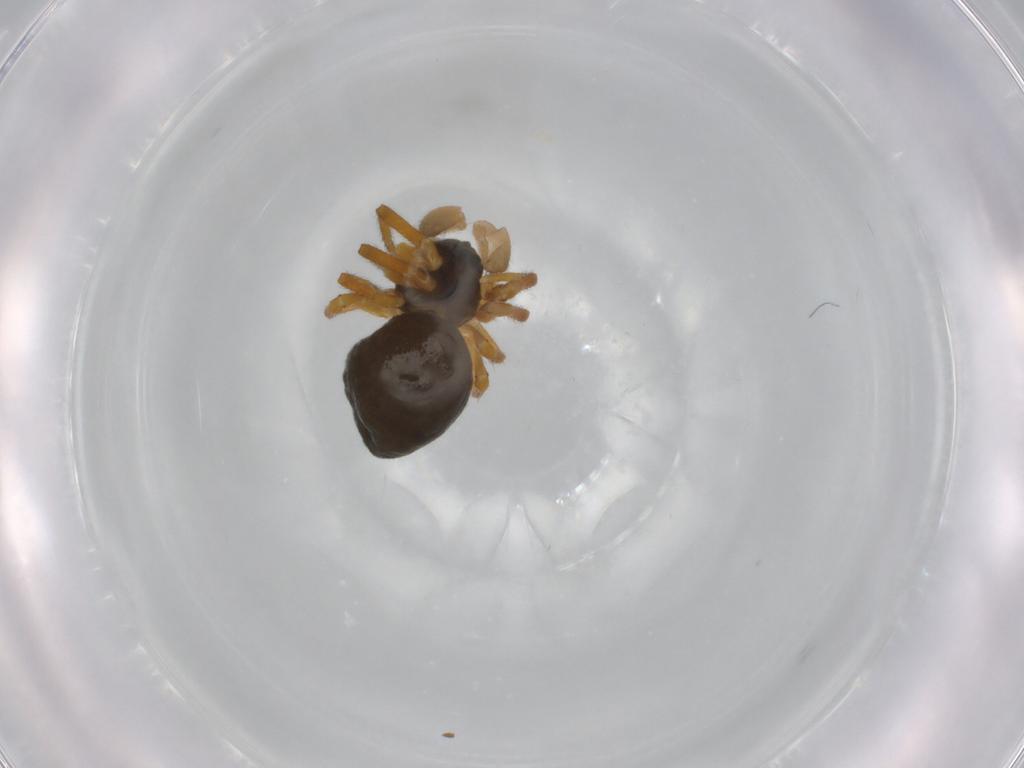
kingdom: Animalia
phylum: Arthropoda
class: Arachnida
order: Araneae
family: Linyphiidae
